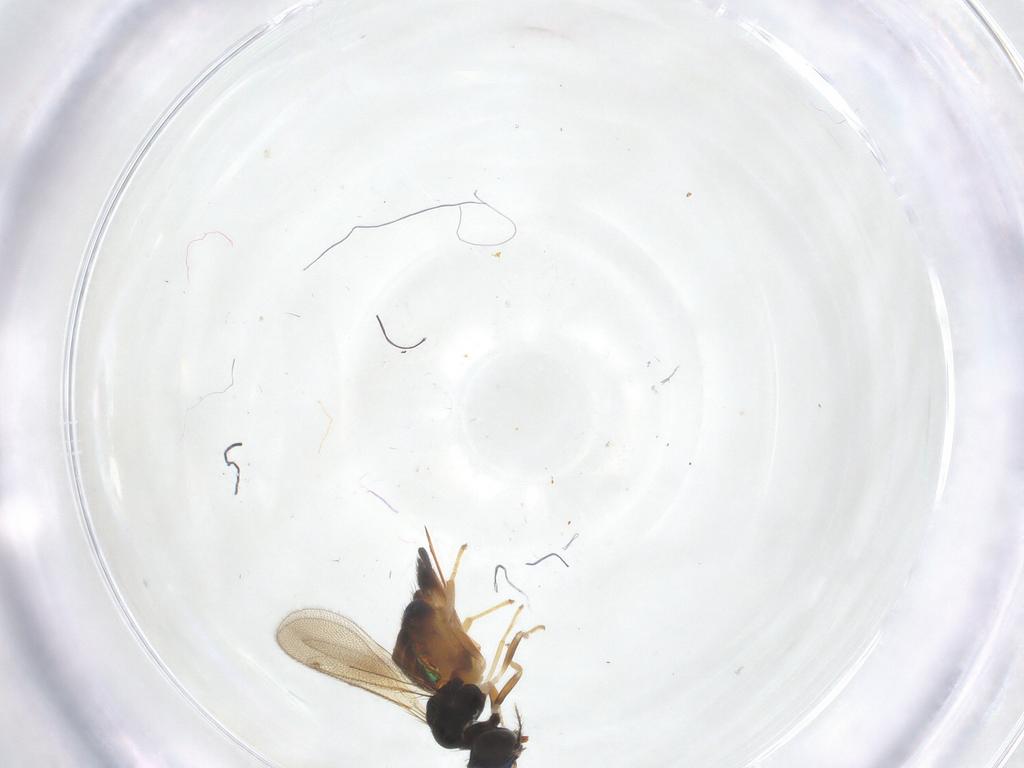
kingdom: Animalia
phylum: Arthropoda
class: Insecta
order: Hymenoptera
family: Eulophidae
